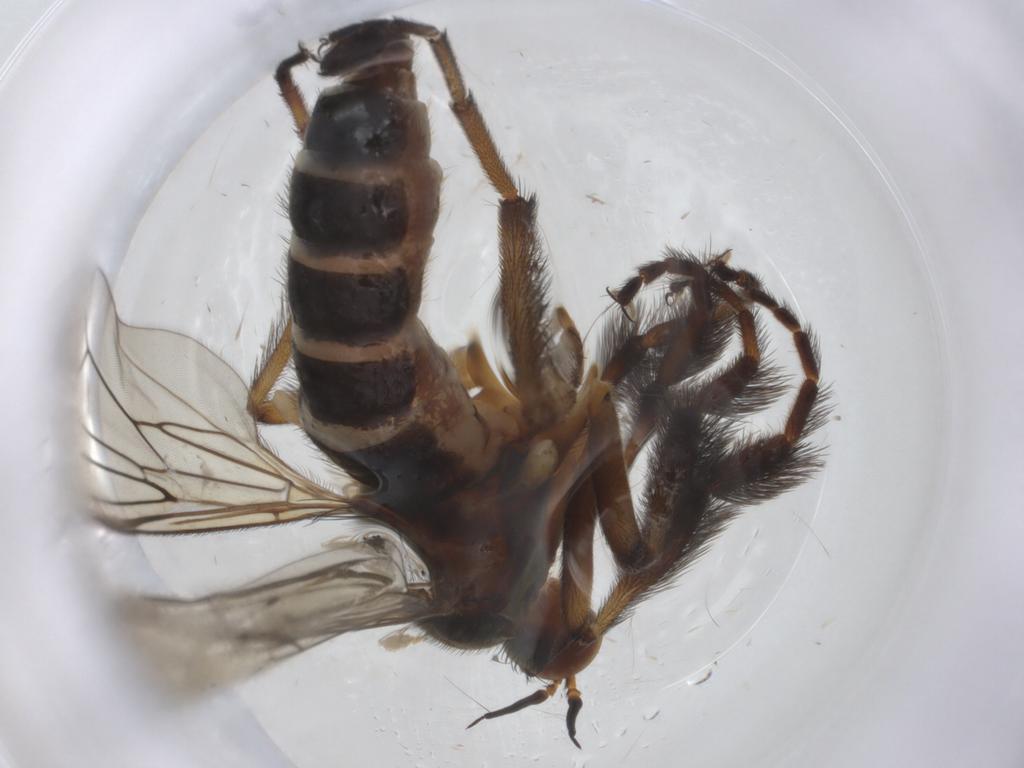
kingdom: Animalia
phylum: Arthropoda
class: Insecta
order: Diptera
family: Empididae
